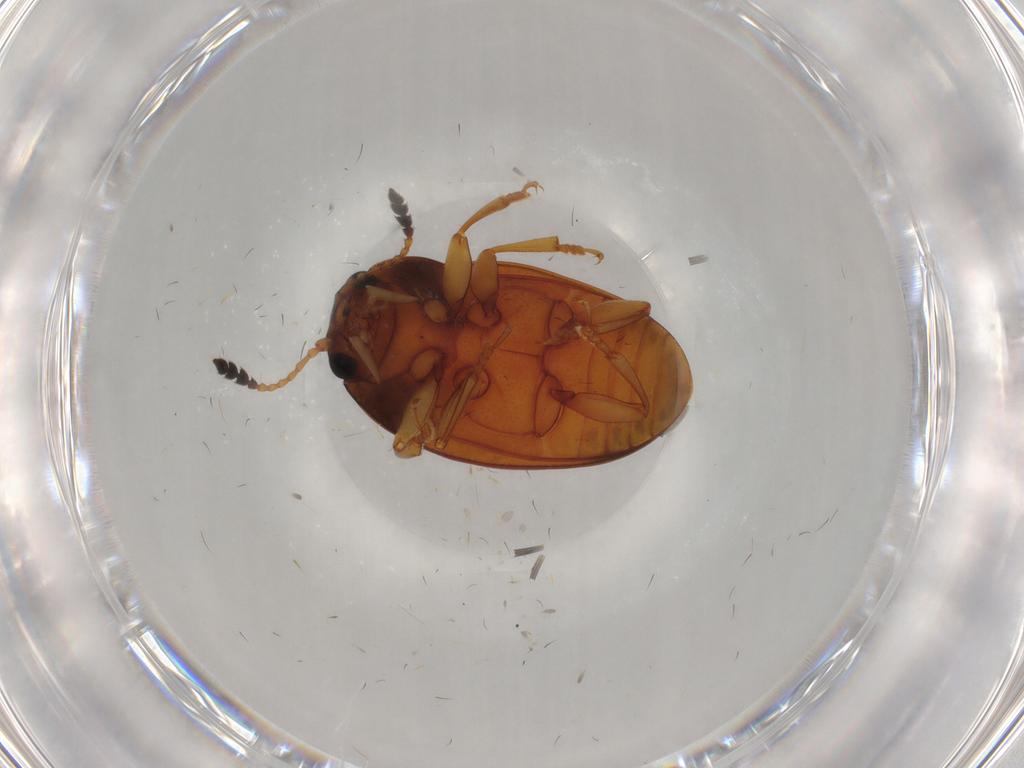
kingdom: Animalia
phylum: Arthropoda
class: Insecta
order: Coleoptera
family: Erotylidae
